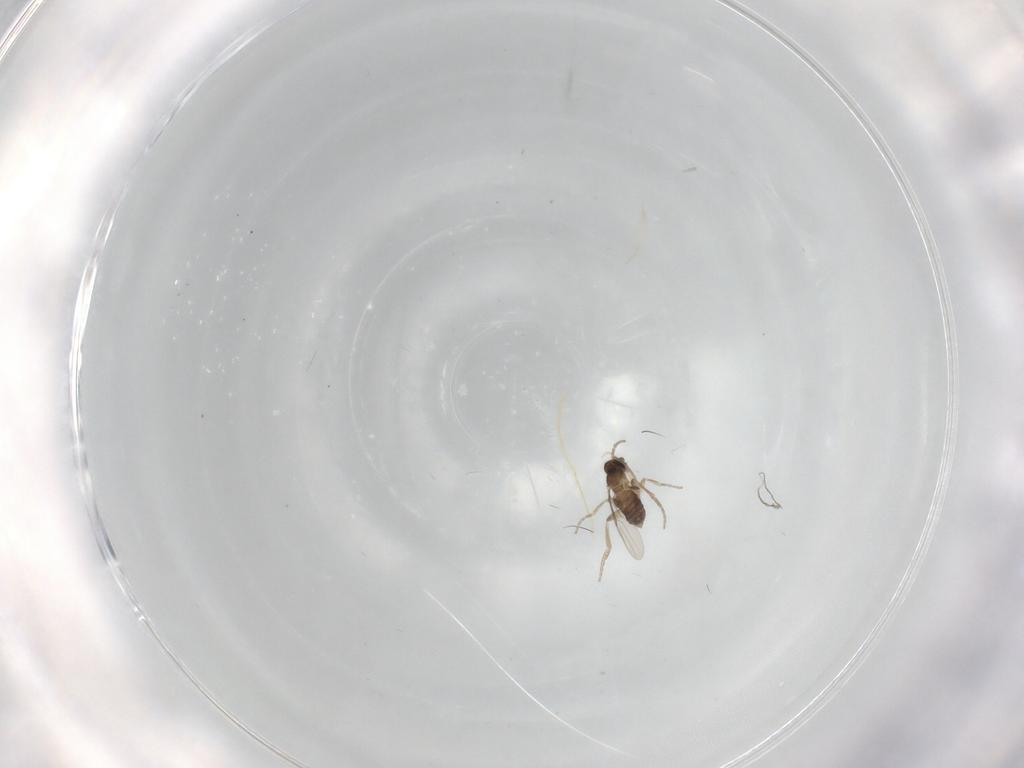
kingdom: Animalia
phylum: Arthropoda
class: Insecta
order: Diptera
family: Phoridae
